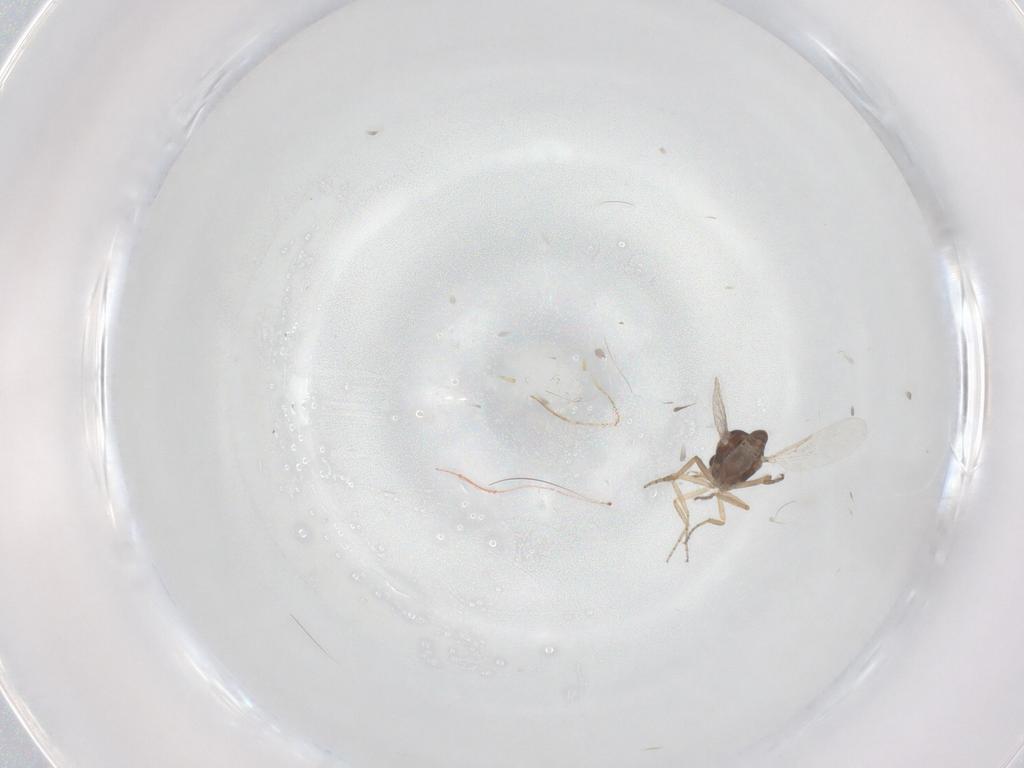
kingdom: Animalia
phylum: Arthropoda
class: Insecta
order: Diptera
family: Ceratopogonidae
